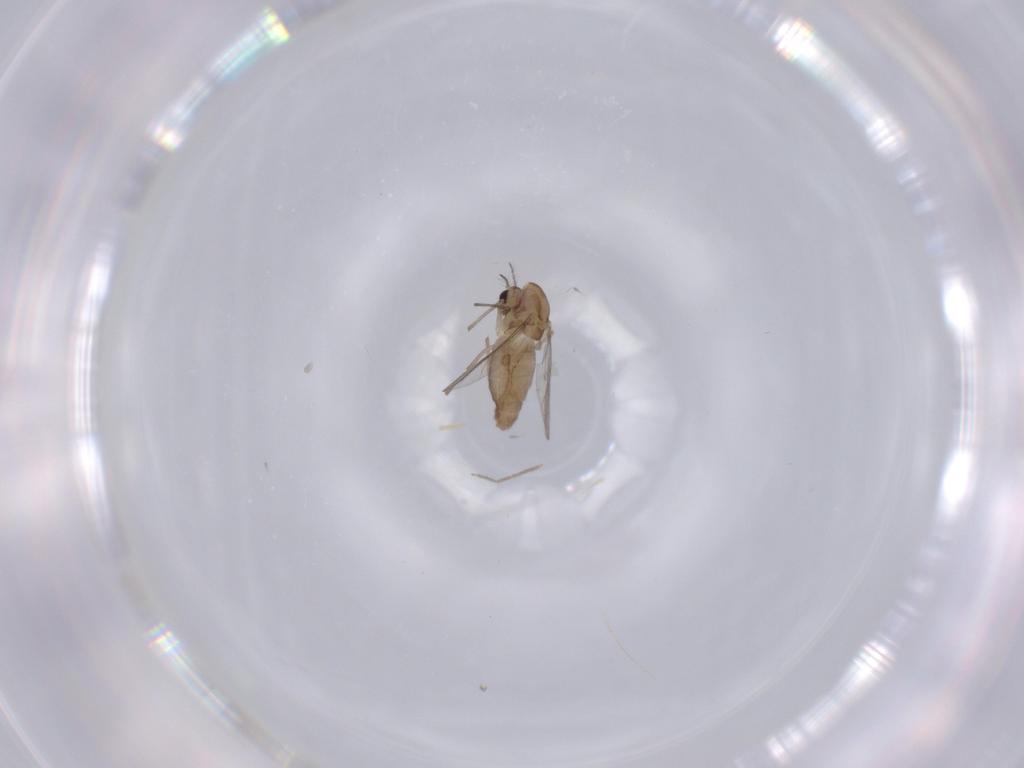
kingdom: Animalia
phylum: Arthropoda
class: Insecta
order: Diptera
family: Chironomidae
